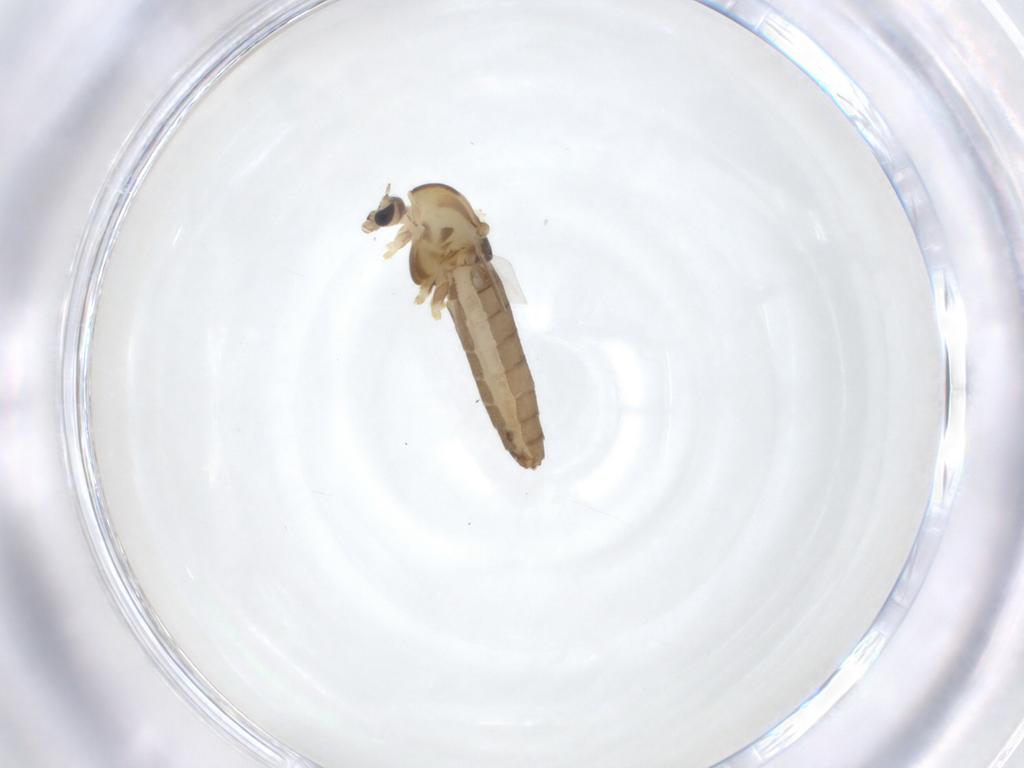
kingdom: Animalia
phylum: Arthropoda
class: Insecta
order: Diptera
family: Chironomidae
